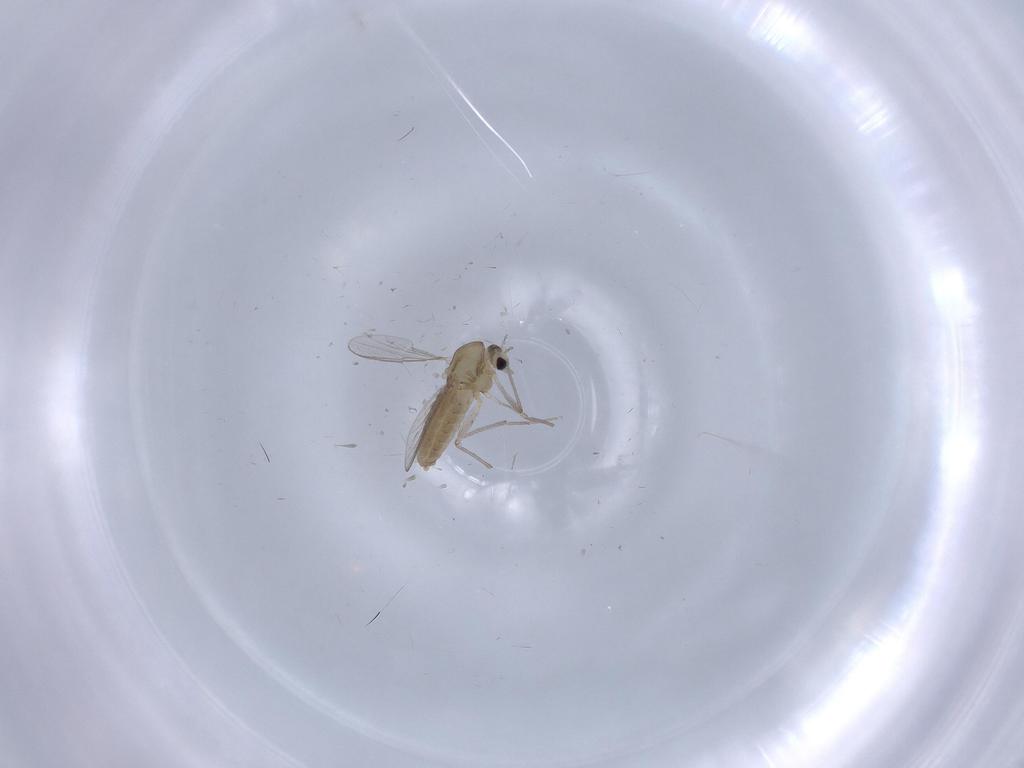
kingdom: Animalia
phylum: Arthropoda
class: Insecta
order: Diptera
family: Chironomidae
